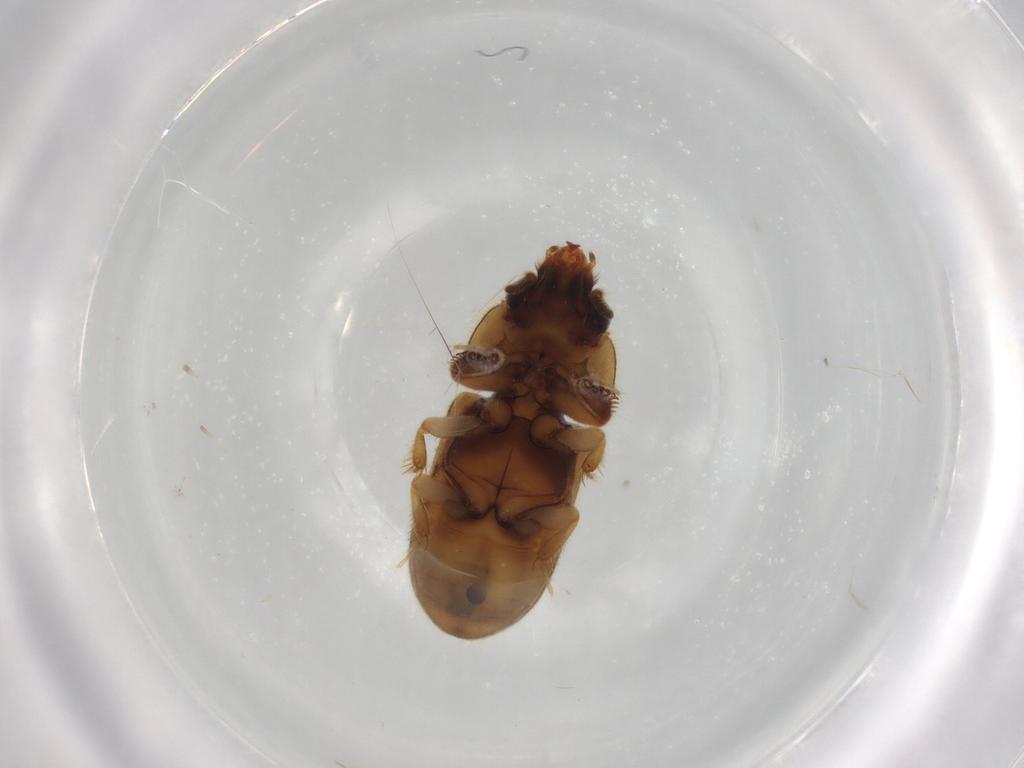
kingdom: Animalia
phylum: Arthropoda
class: Insecta
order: Coleoptera
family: Heteroceridae
